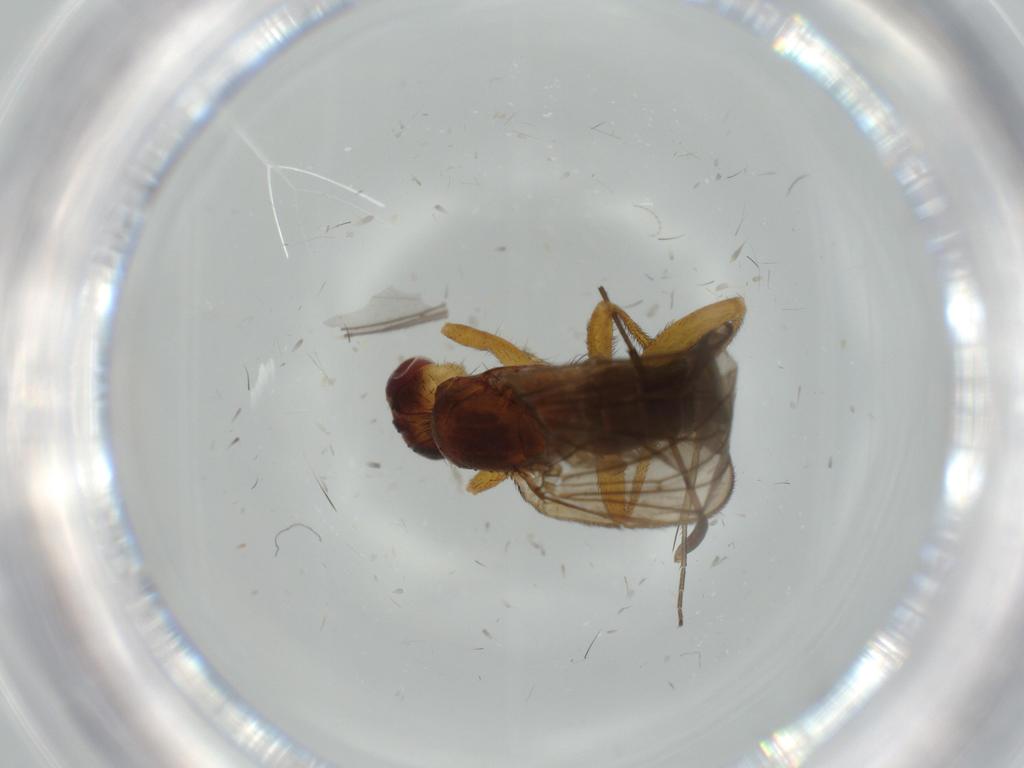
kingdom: Animalia
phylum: Arthropoda
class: Insecta
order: Diptera
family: Heleomyzidae
